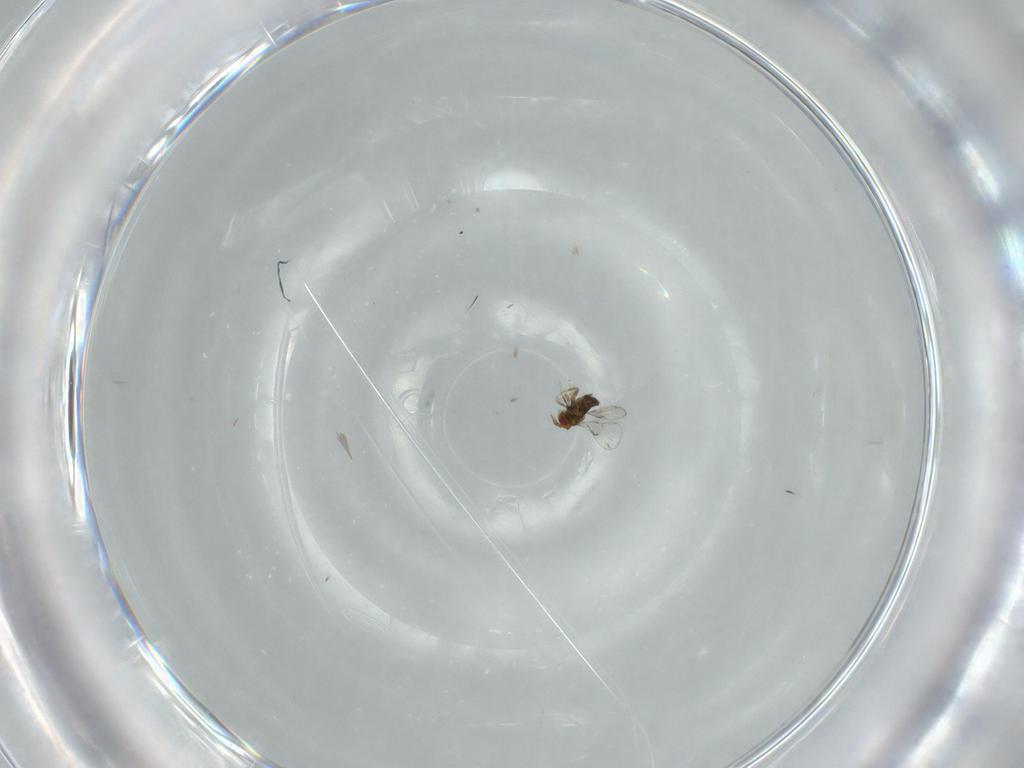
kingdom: Animalia
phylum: Arthropoda
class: Insecta
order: Hymenoptera
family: Trichogrammatidae
